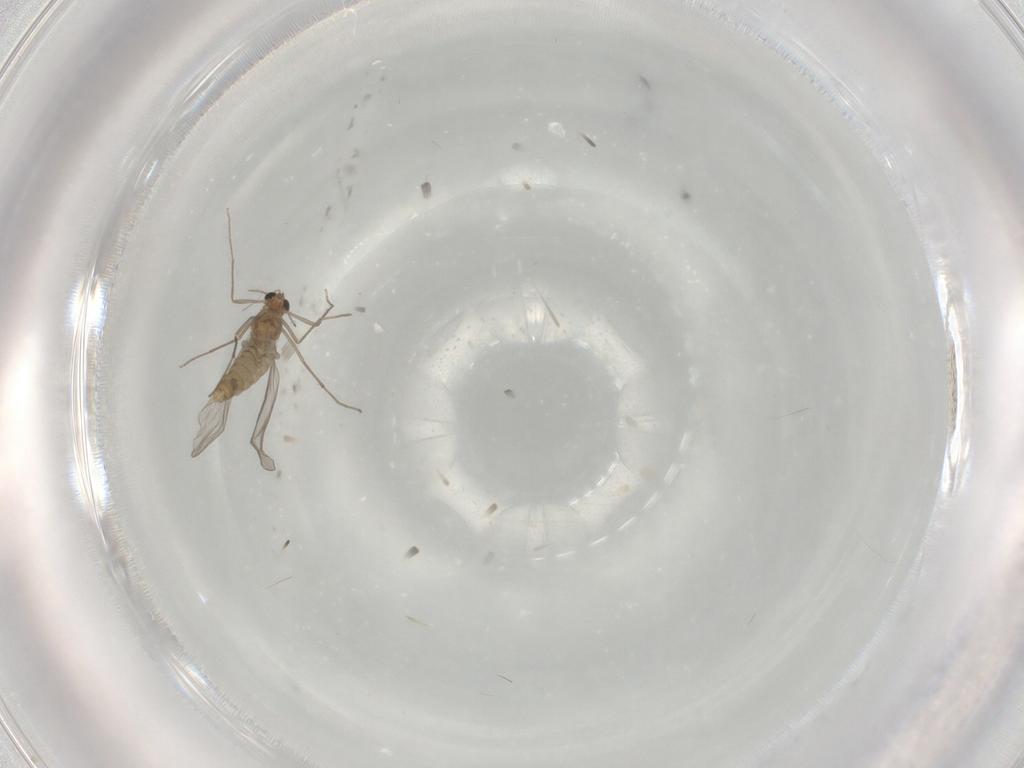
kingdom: Animalia
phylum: Arthropoda
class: Insecta
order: Diptera
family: Chironomidae
